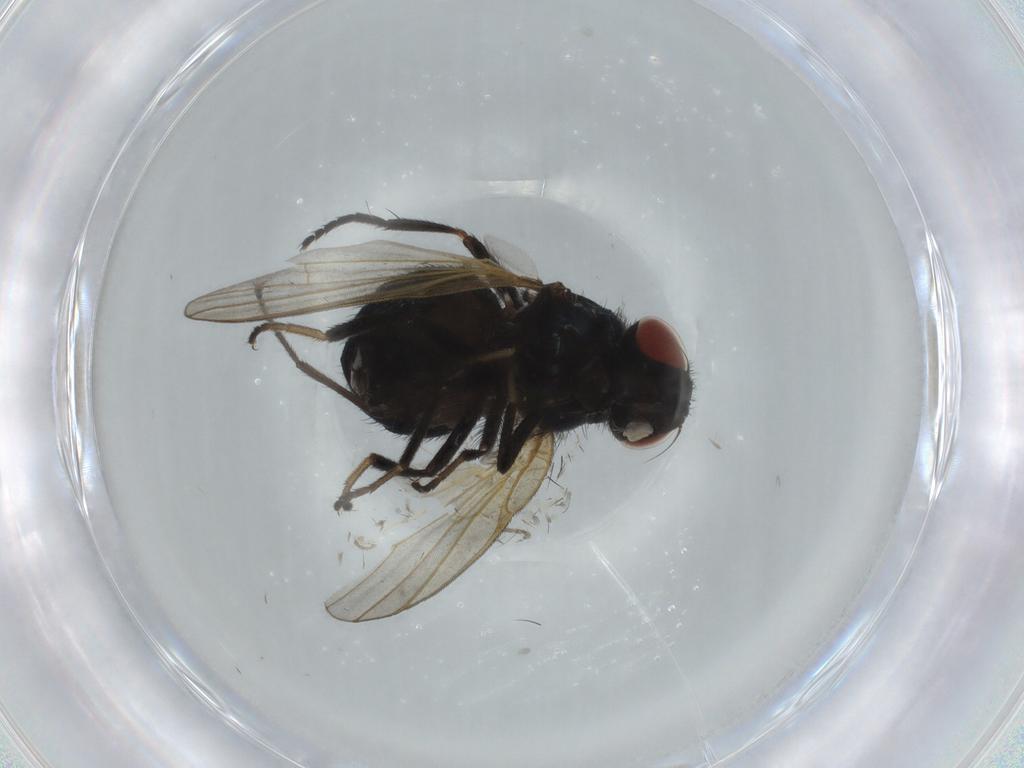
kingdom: Animalia
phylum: Arthropoda
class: Insecta
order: Diptera
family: Lonchaeidae
